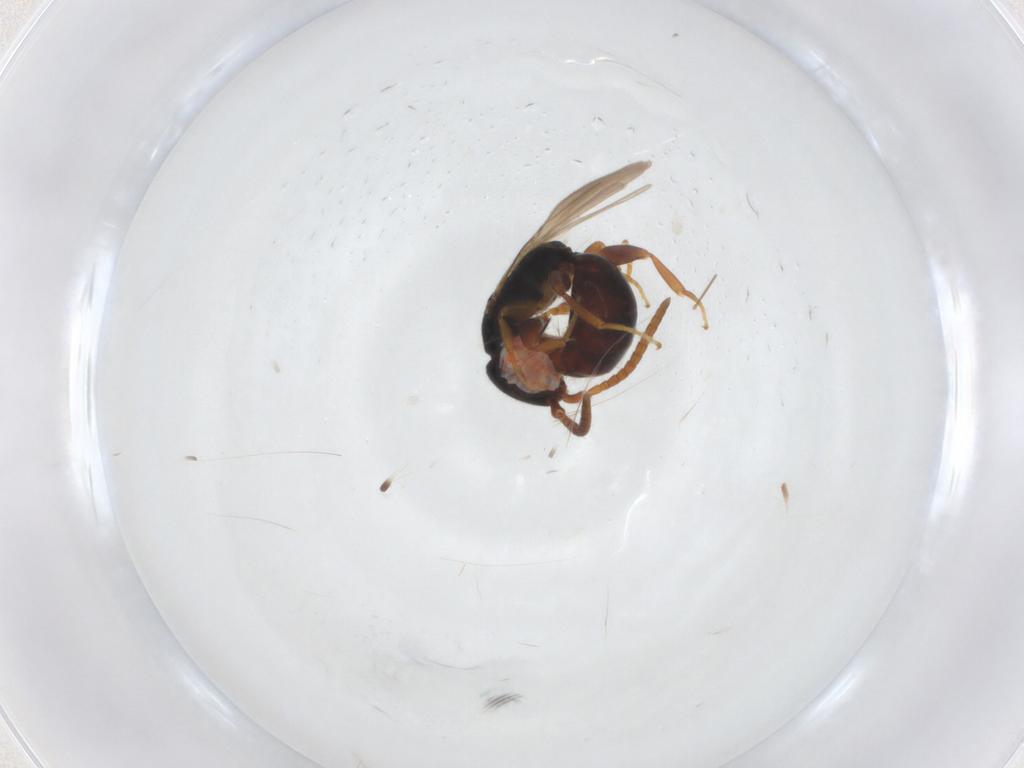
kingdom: Animalia
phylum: Arthropoda
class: Insecta
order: Hymenoptera
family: Bethylidae
